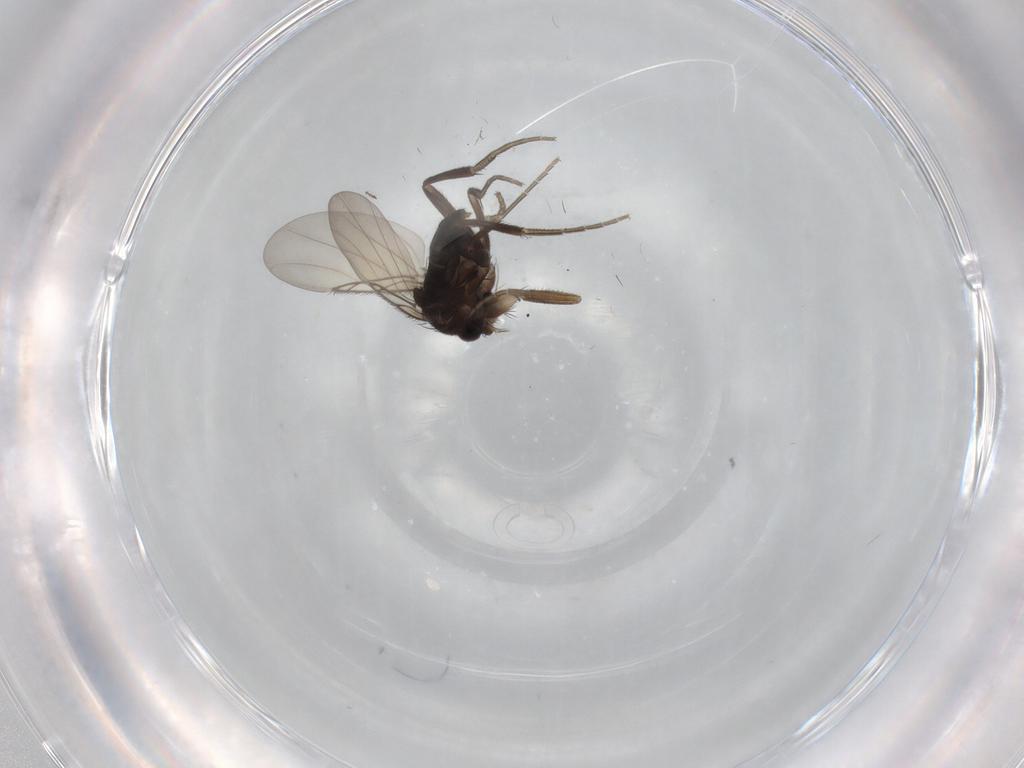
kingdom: Animalia
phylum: Arthropoda
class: Insecta
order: Diptera
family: Phoridae
